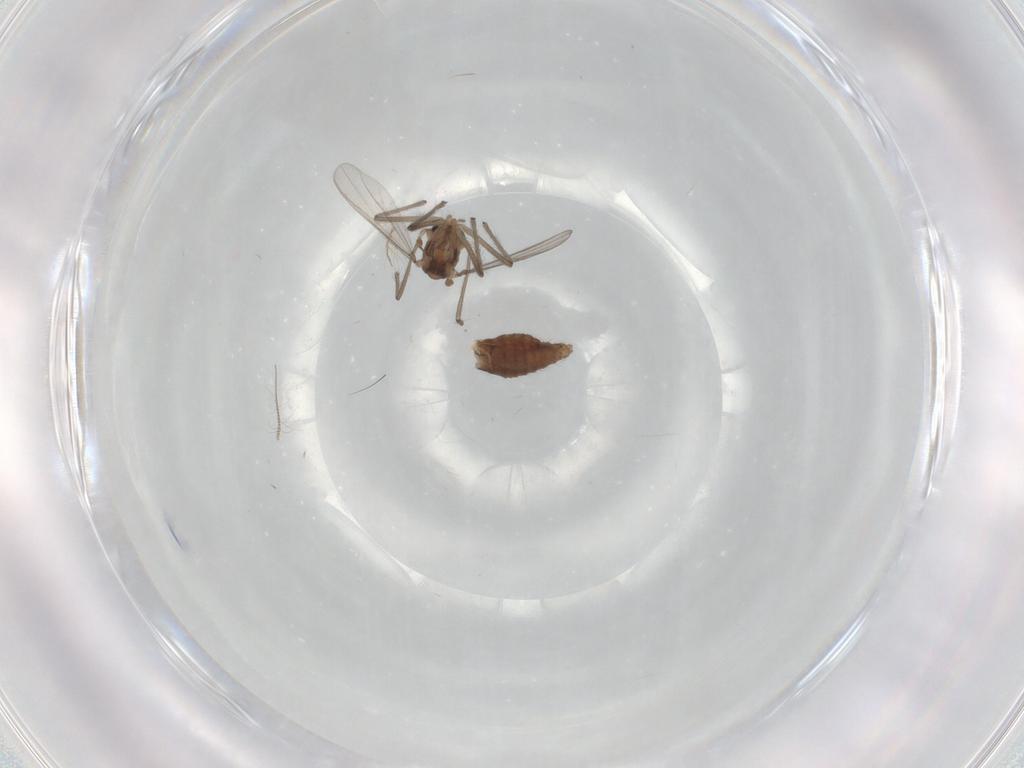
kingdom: Animalia
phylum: Arthropoda
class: Insecta
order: Diptera
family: Chironomidae
